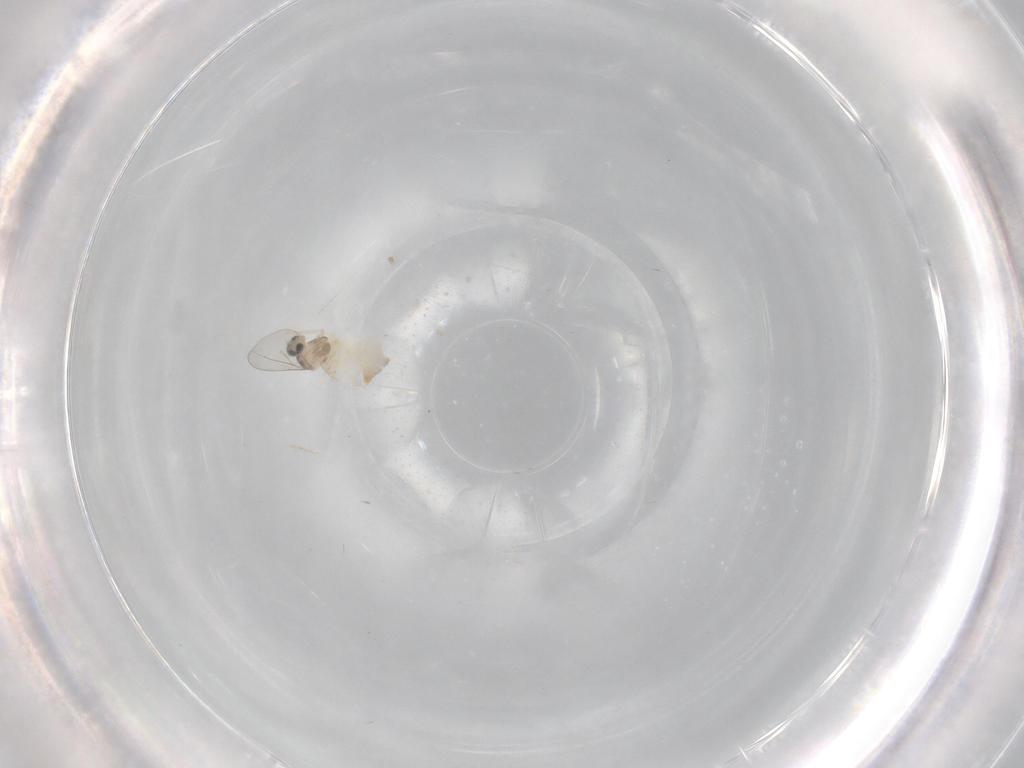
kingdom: Animalia
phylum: Arthropoda
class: Insecta
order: Diptera
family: Cecidomyiidae
